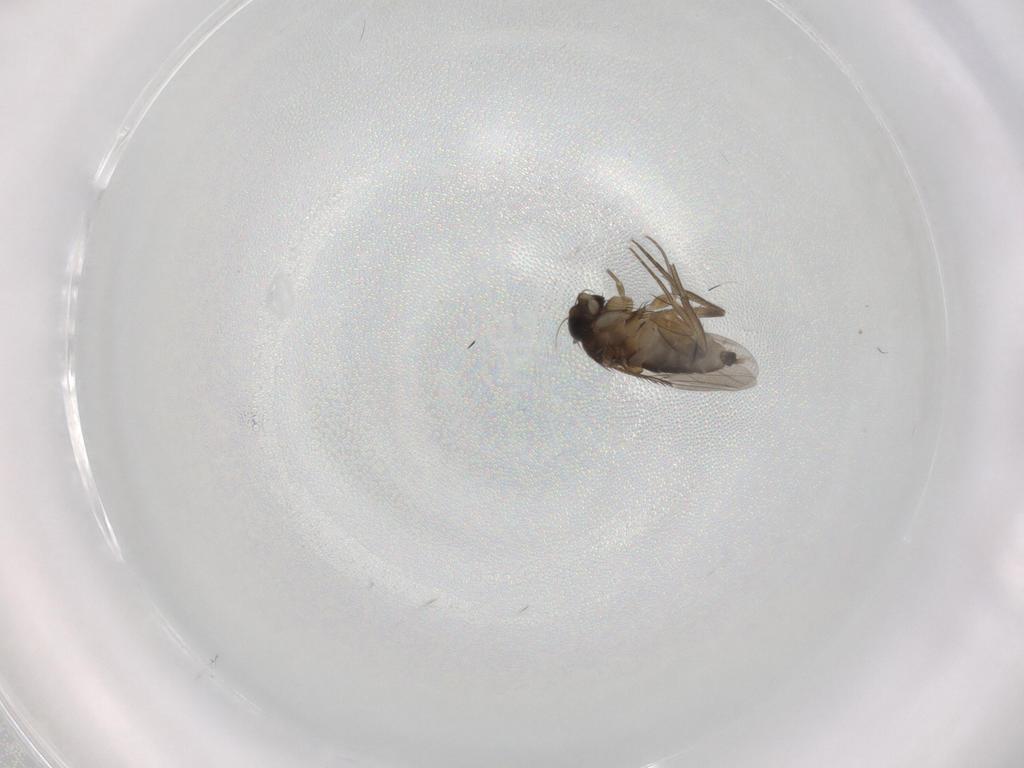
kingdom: Animalia
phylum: Arthropoda
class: Insecta
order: Diptera
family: Phoridae
